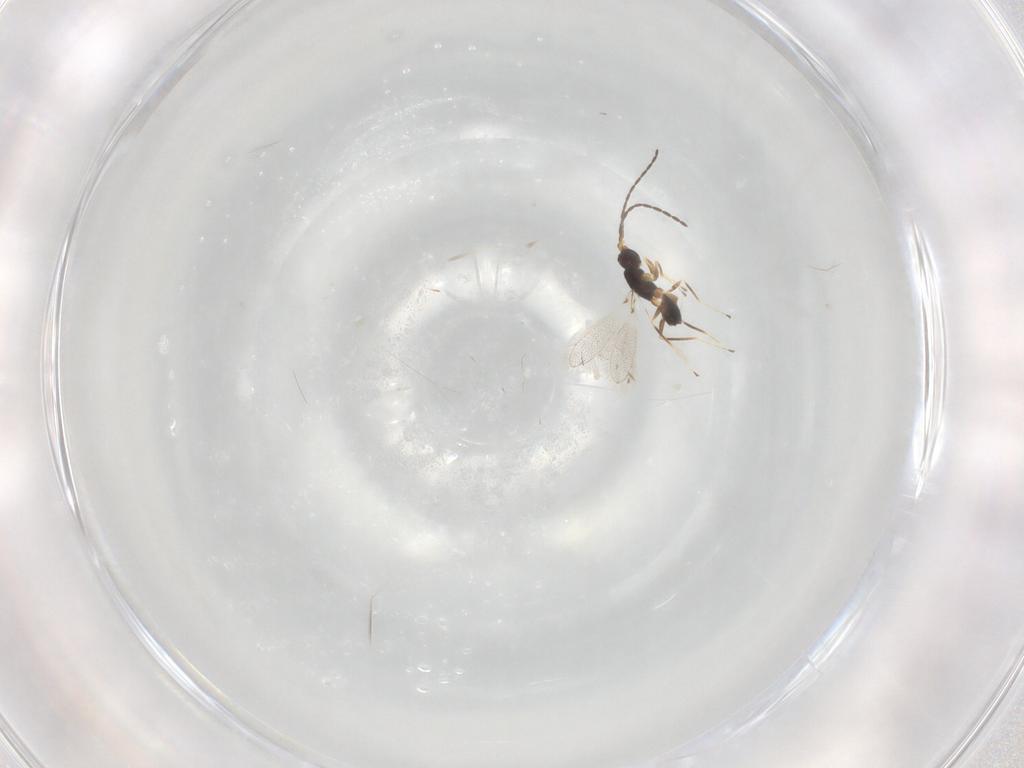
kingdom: Animalia
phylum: Arthropoda
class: Insecta
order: Hymenoptera
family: Mymaridae
